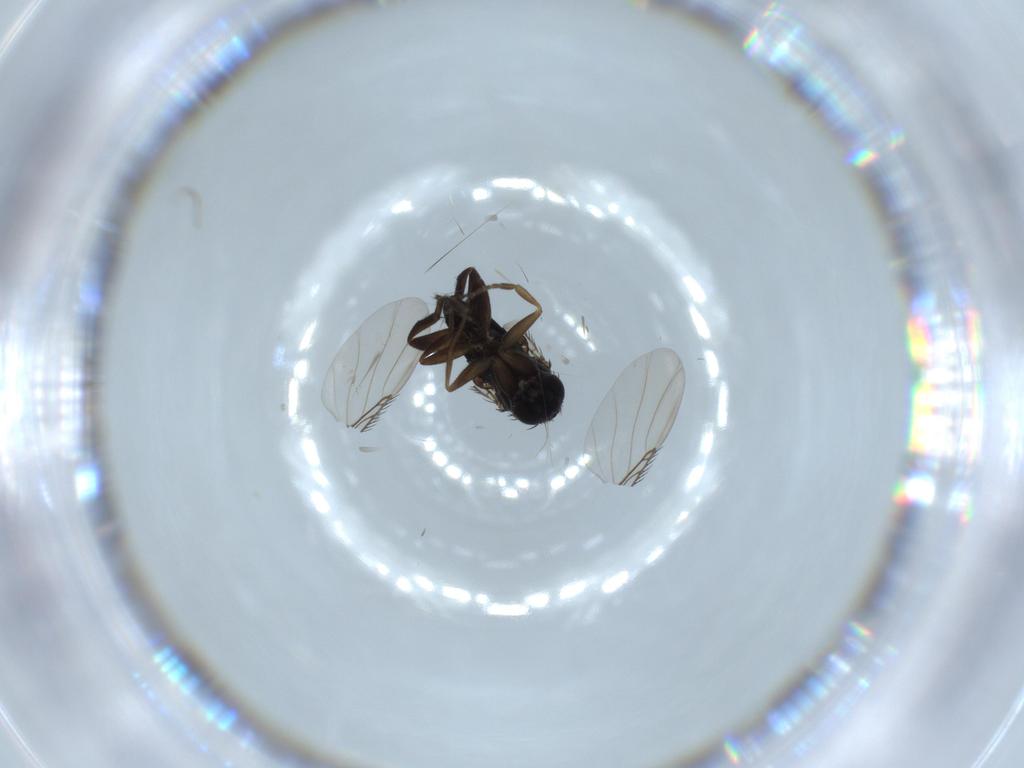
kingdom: Animalia
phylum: Arthropoda
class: Insecta
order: Diptera
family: Phoridae
